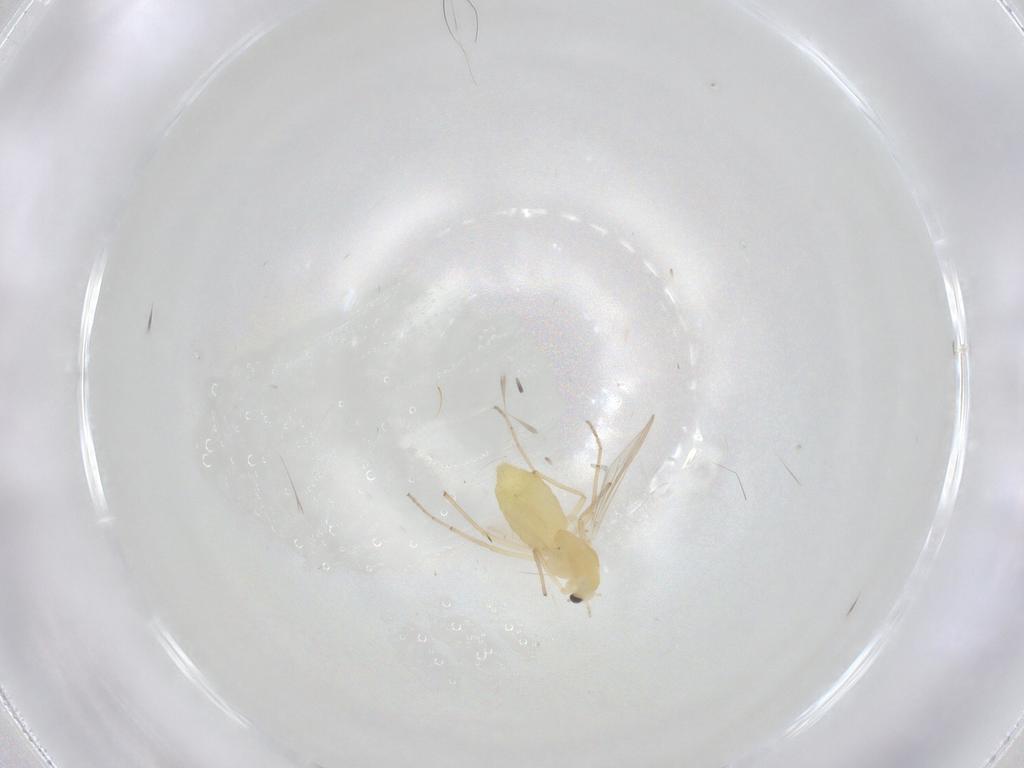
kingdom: Animalia
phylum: Arthropoda
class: Insecta
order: Diptera
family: Chironomidae
